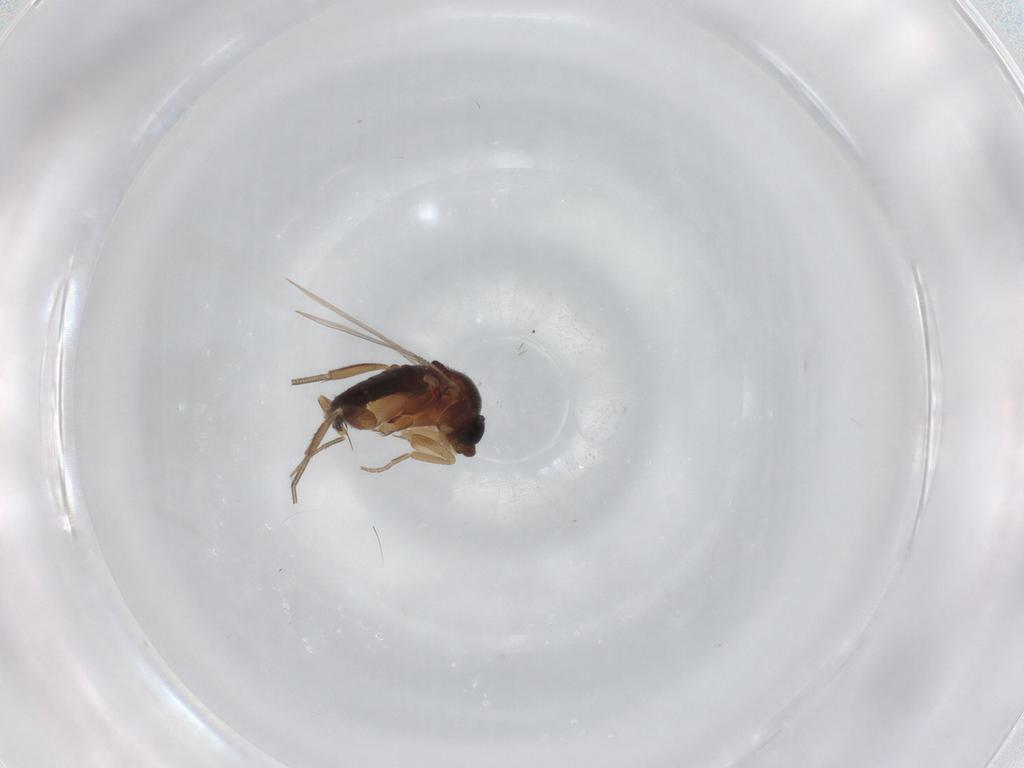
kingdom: Animalia
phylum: Arthropoda
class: Insecta
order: Diptera
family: Phoridae
